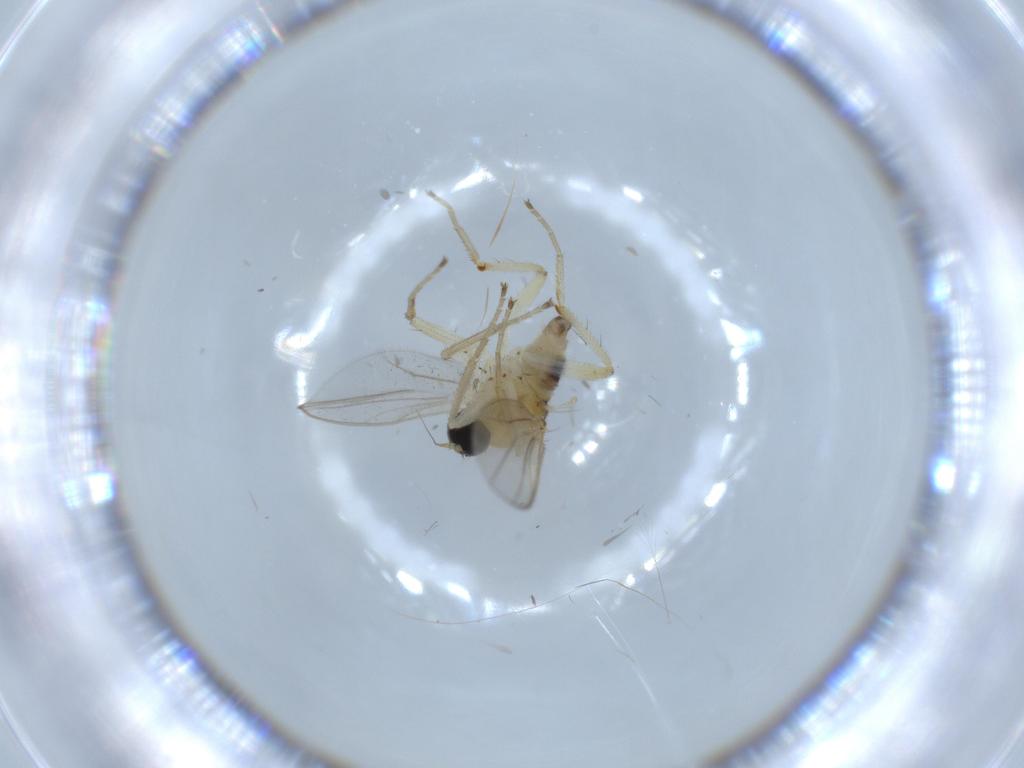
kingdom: Animalia
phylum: Arthropoda
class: Insecta
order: Diptera
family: Hybotidae
